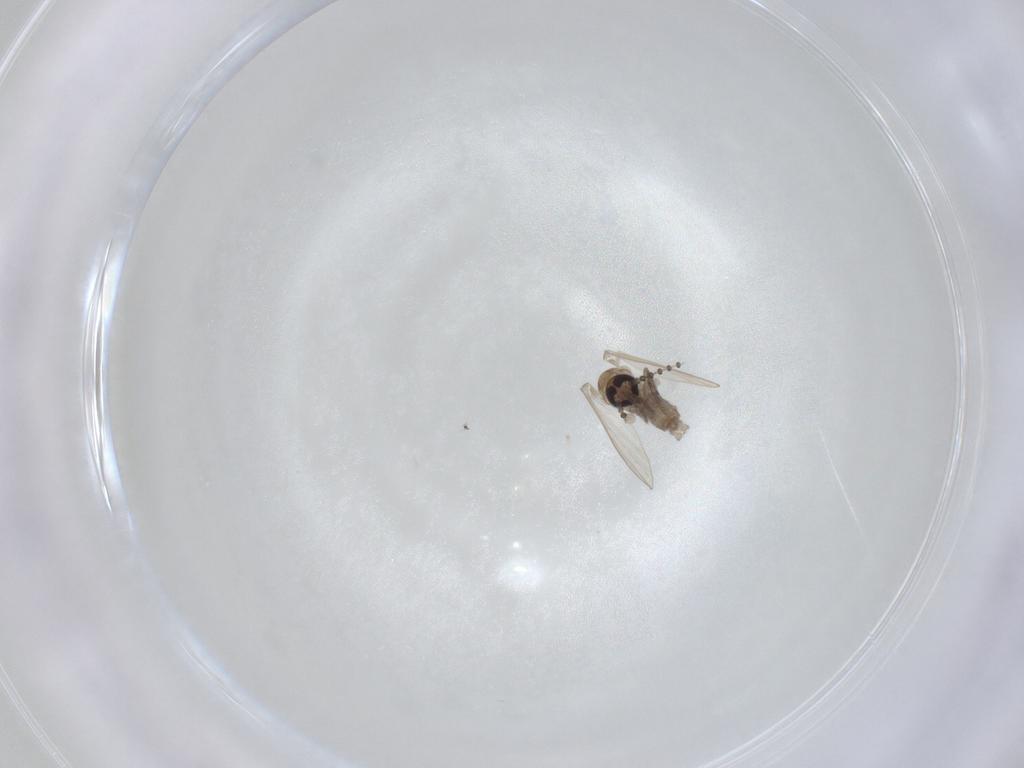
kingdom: Animalia
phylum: Arthropoda
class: Insecta
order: Diptera
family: Psychodidae
